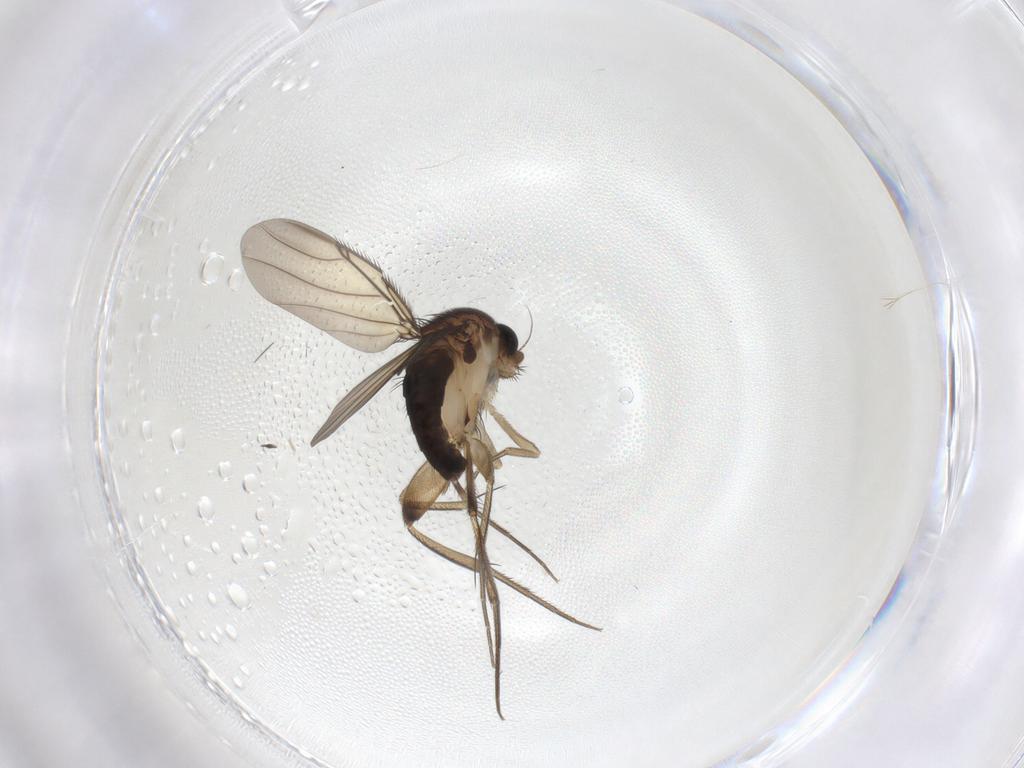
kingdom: Animalia
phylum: Arthropoda
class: Insecta
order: Diptera
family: Phoridae
